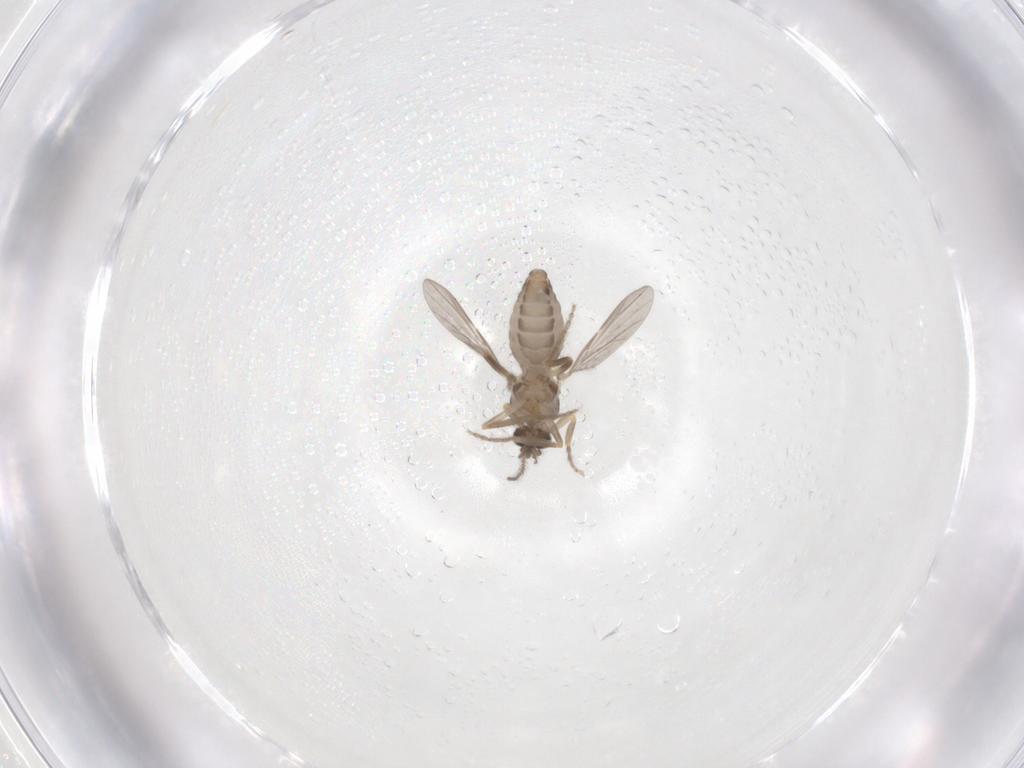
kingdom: Animalia
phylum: Arthropoda
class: Insecta
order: Diptera
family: Ceratopogonidae
